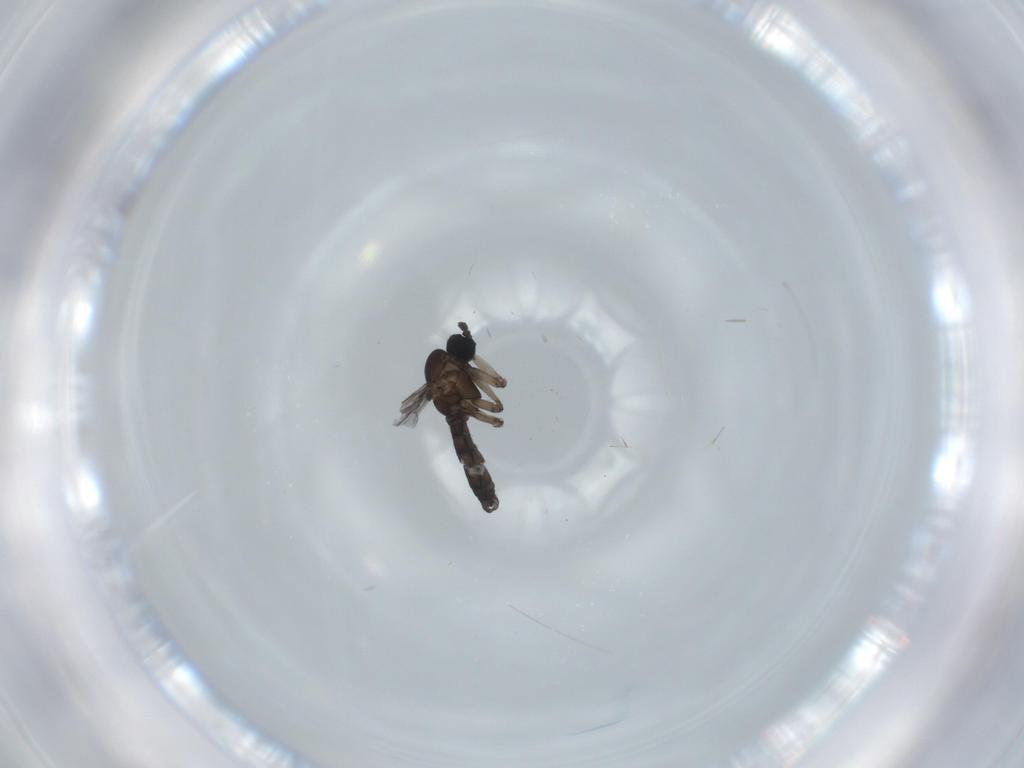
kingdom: Animalia
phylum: Arthropoda
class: Insecta
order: Diptera
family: Sciaridae
